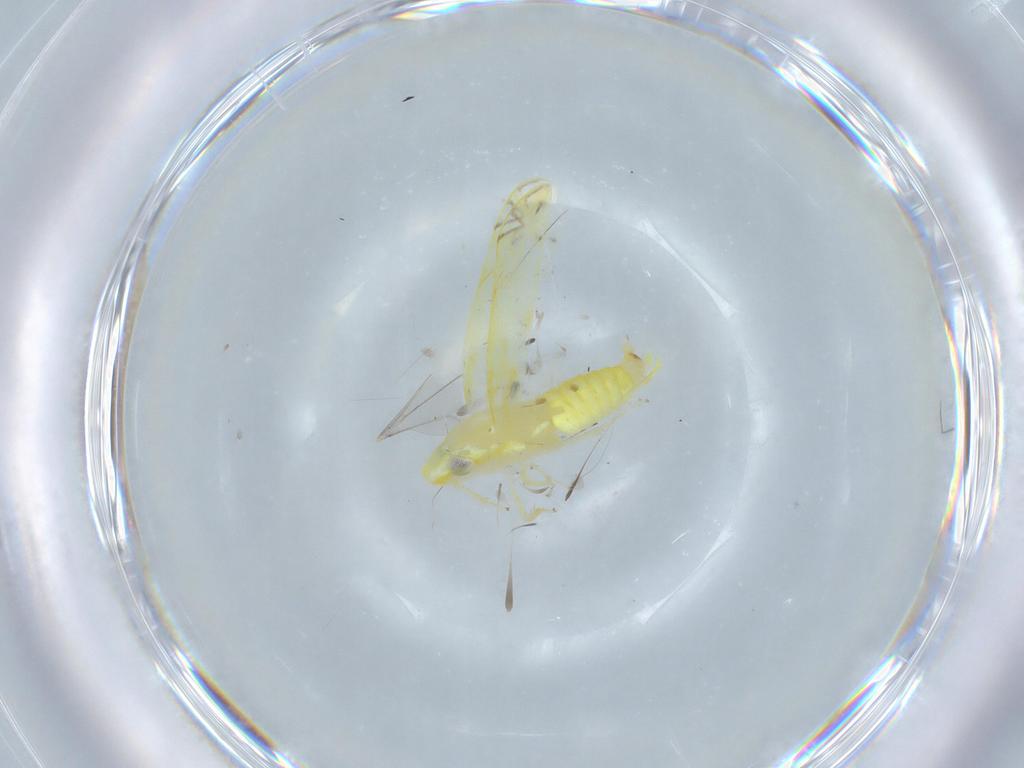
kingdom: Animalia
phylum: Arthropoda
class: Insecta
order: Hemiptera
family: Cicadellidae
